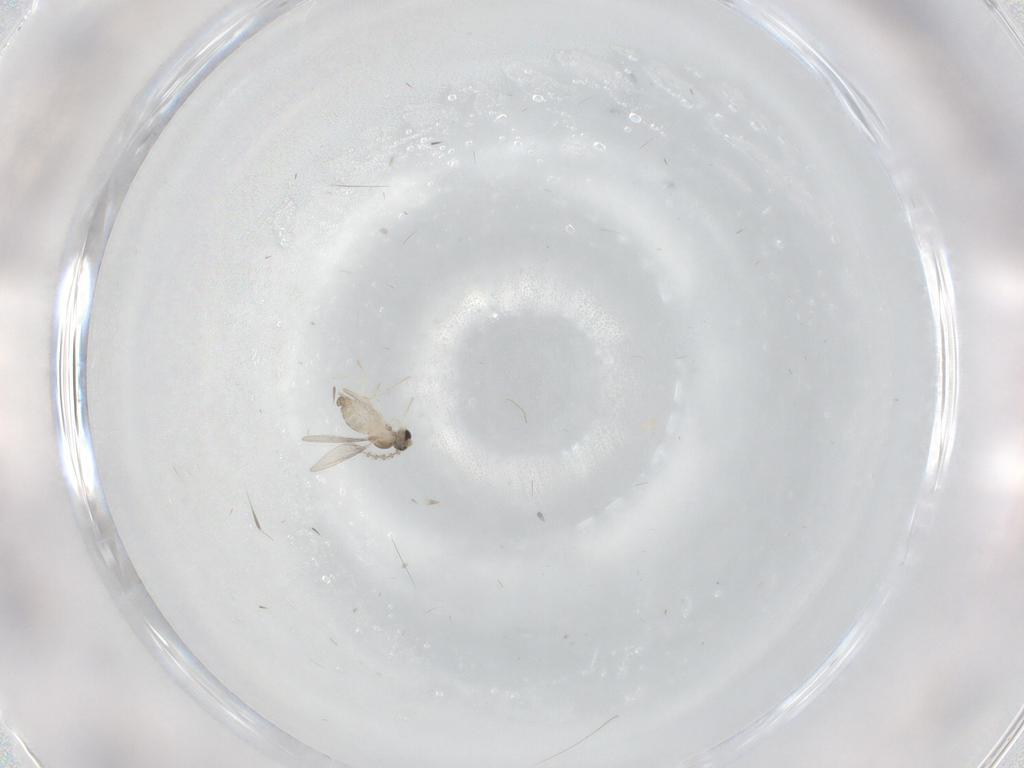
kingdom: Animalia
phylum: Arthropoda
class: Insecta
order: Diptera
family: Cecidomyiidae
